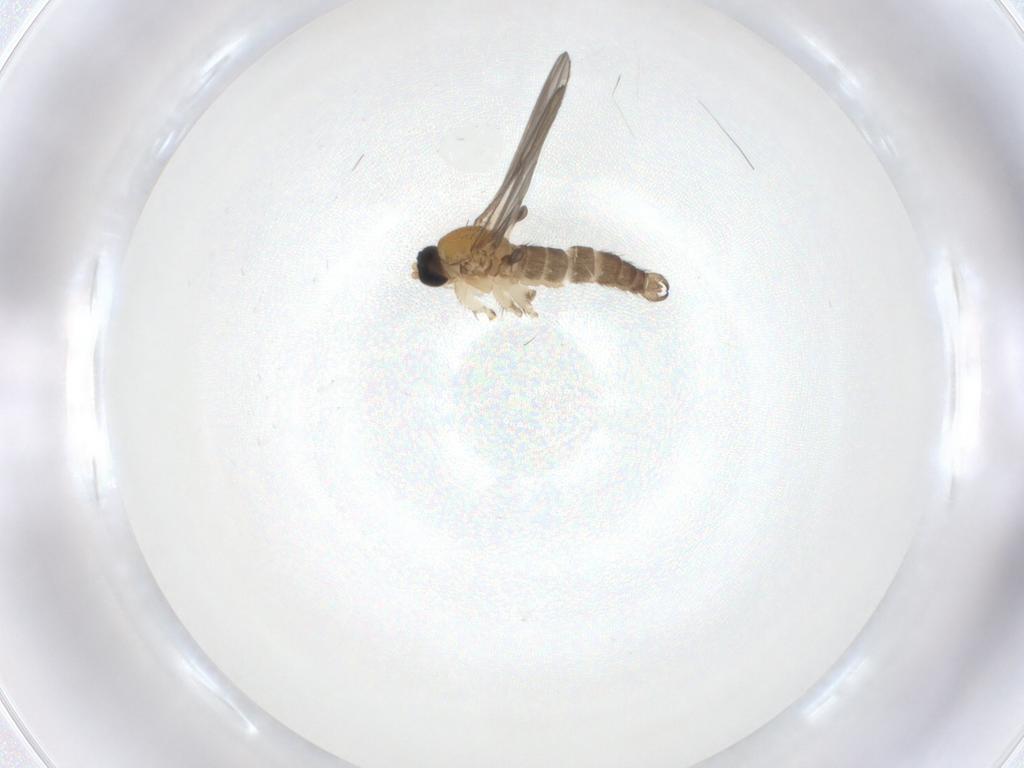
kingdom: Animalia
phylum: Arthropoda
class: Insecta
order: Diptera
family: Sciaridae
